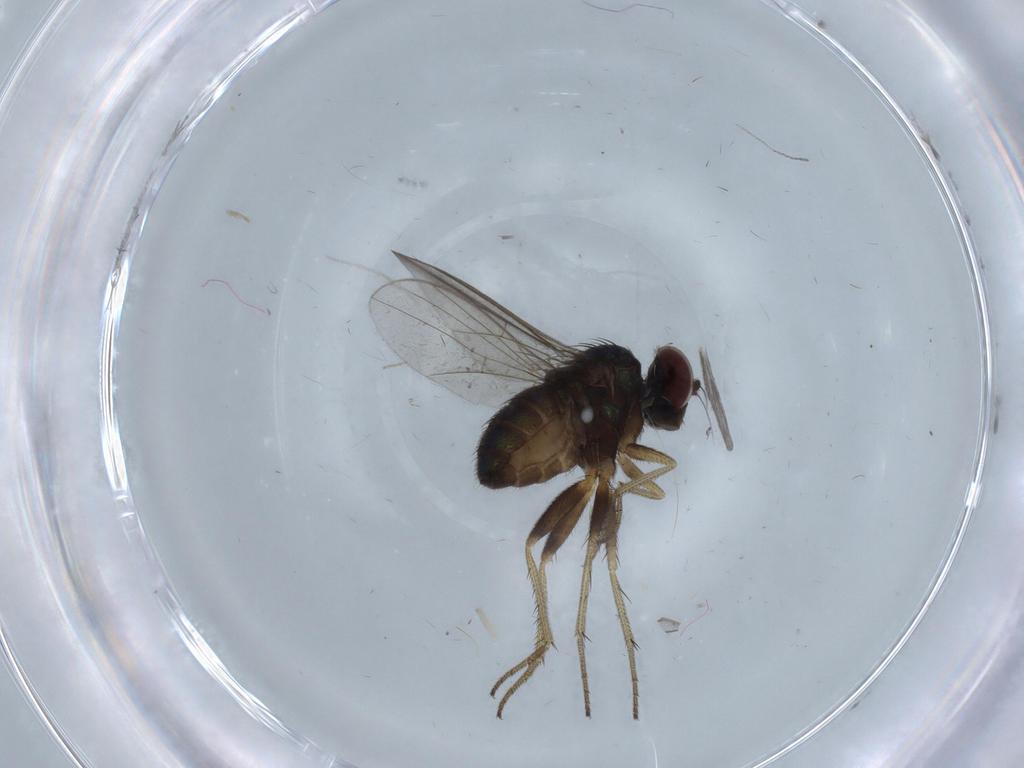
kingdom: Animalia
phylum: Arthropoda
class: Insecta
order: Diptera
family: Dolichopodidae
